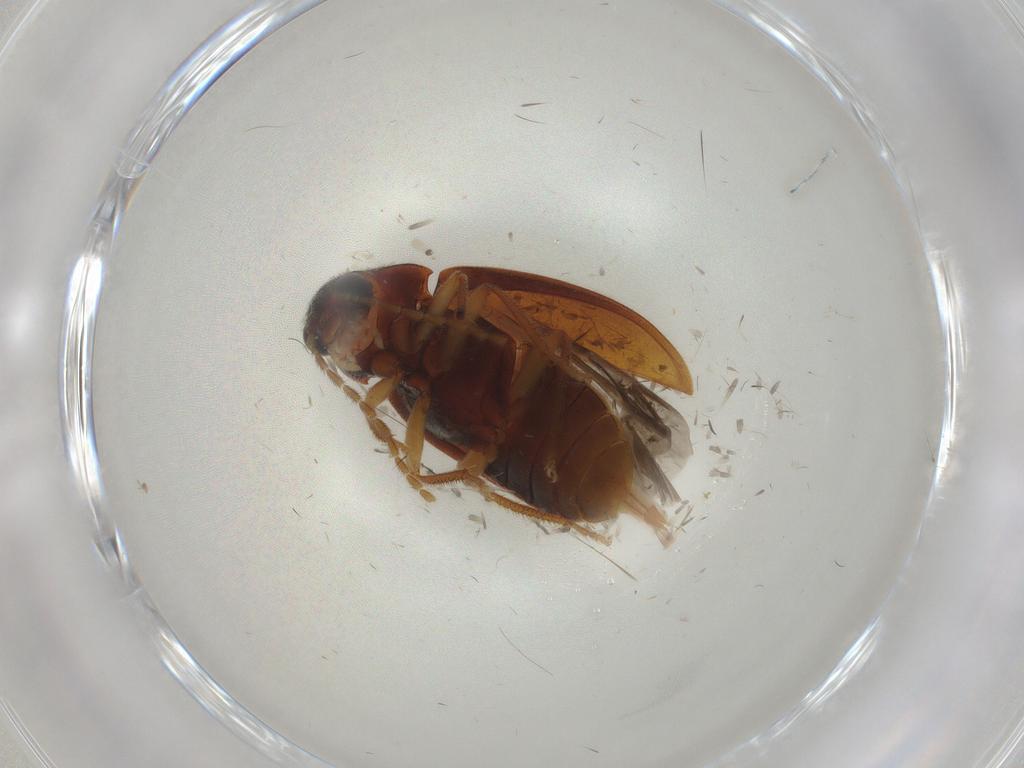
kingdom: Animalia
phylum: Arthropoda
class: Insecta
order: Coleoptera
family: Ptilodactylidae
